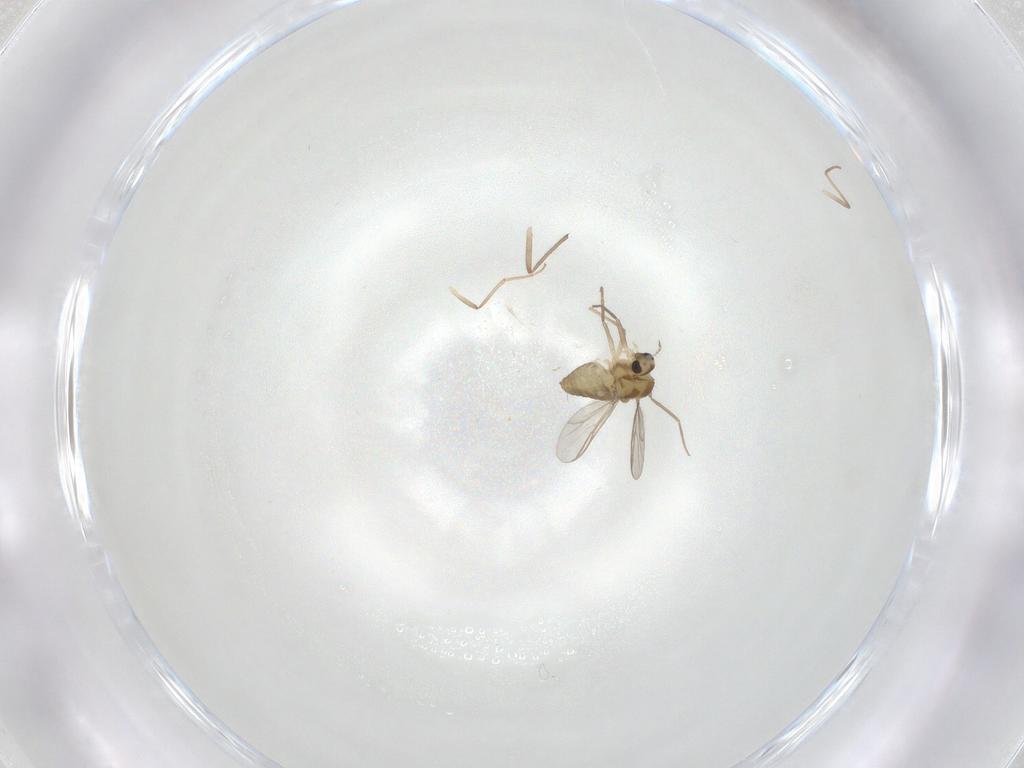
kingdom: Animalia
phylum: Arthropoda
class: Insecta
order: Diptera
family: Chironomidae
